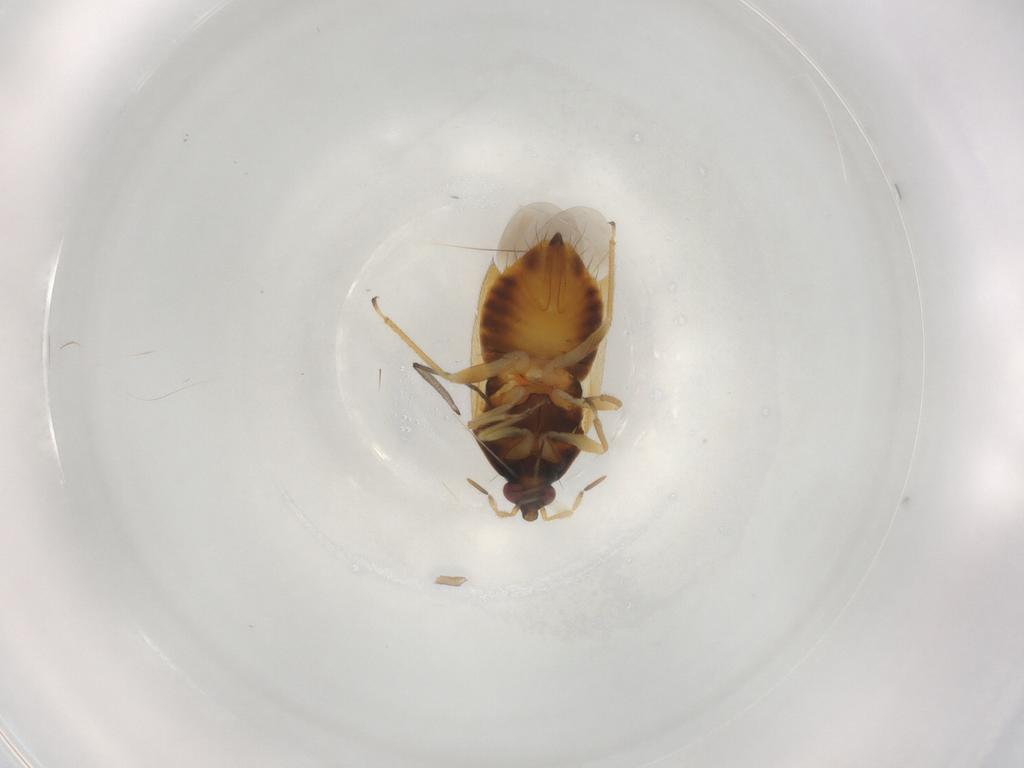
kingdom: Animalia
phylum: Arthropoda
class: Insecta
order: Hemiptera
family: Anthocoridae
